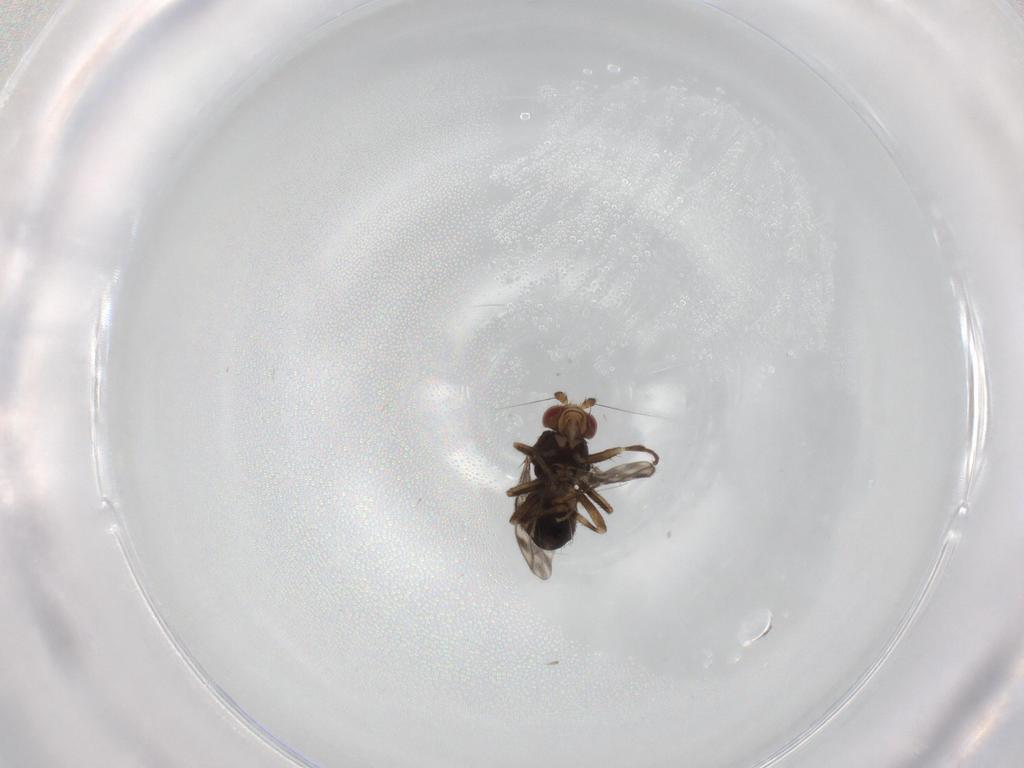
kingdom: Animalia
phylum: Arthropoda
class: Insecta
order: Diptera
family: Sphaeroceridae
